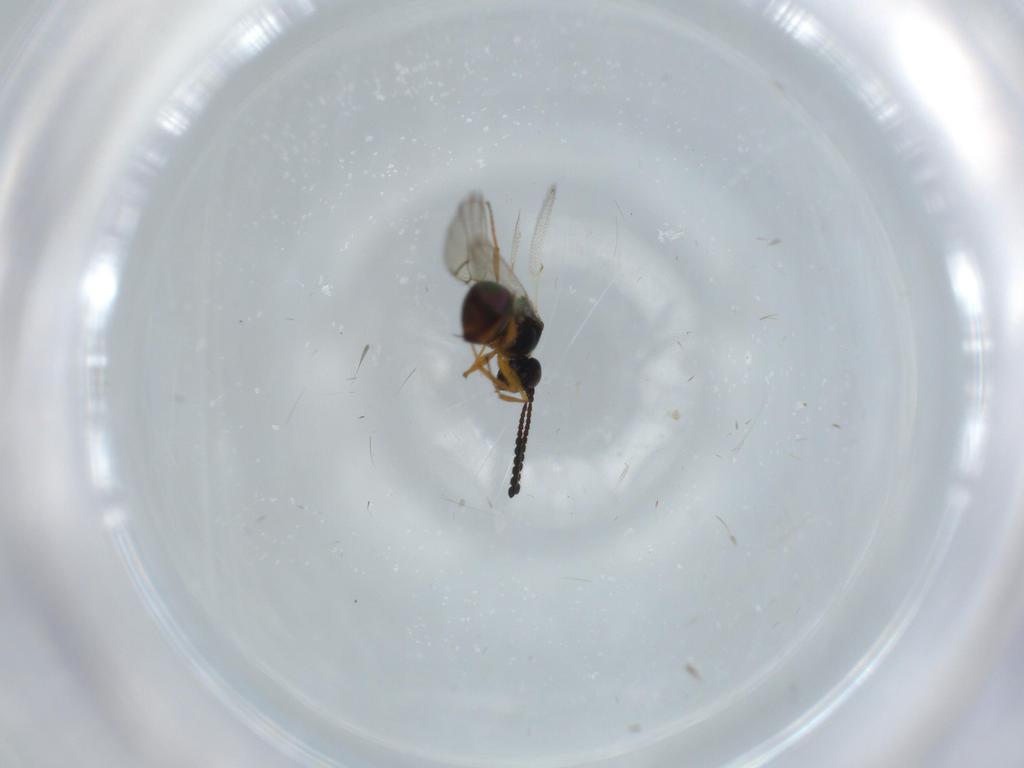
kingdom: Animalia
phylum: Arthropoda
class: Insecta
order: Hymenoptera
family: Figitidae
